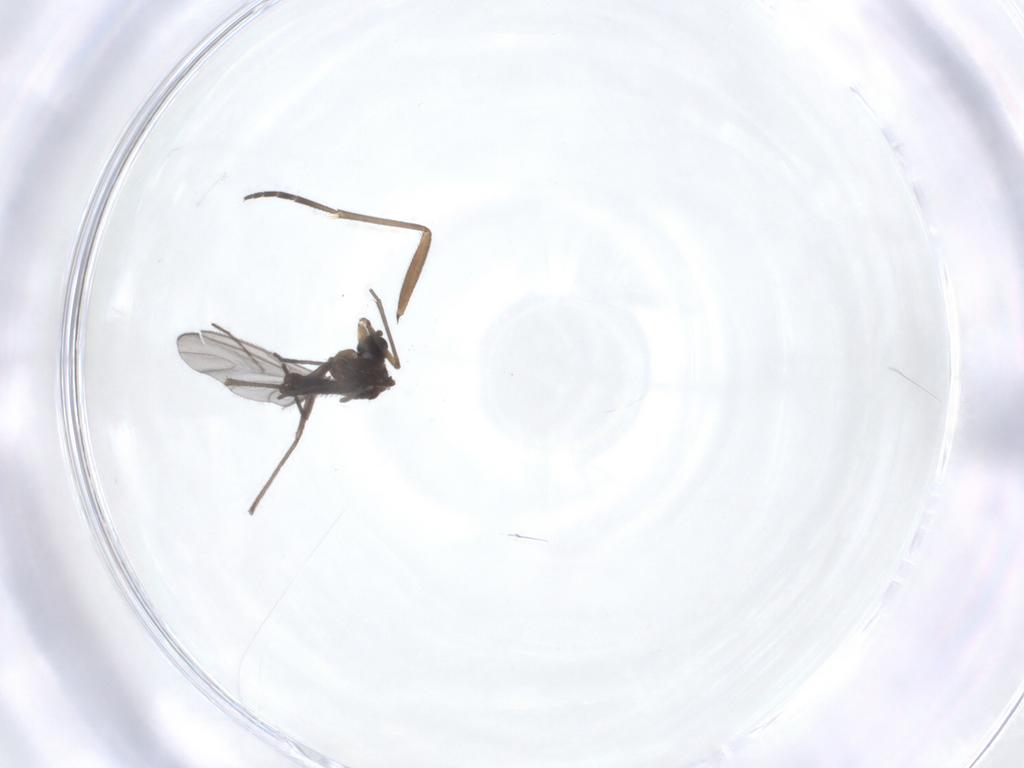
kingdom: Animalia
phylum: Arthropoda
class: Insecta
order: Diptera
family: Sciaridae
